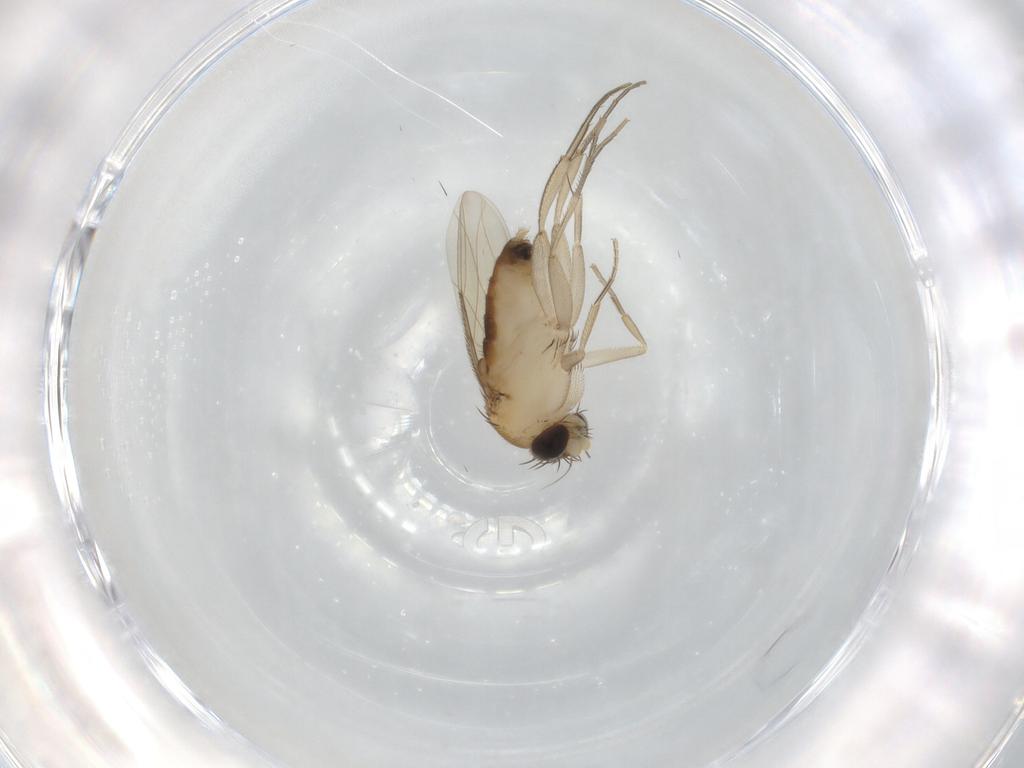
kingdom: Animalia
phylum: Arthropoda
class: Insecta
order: Diptera
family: Phoridae
